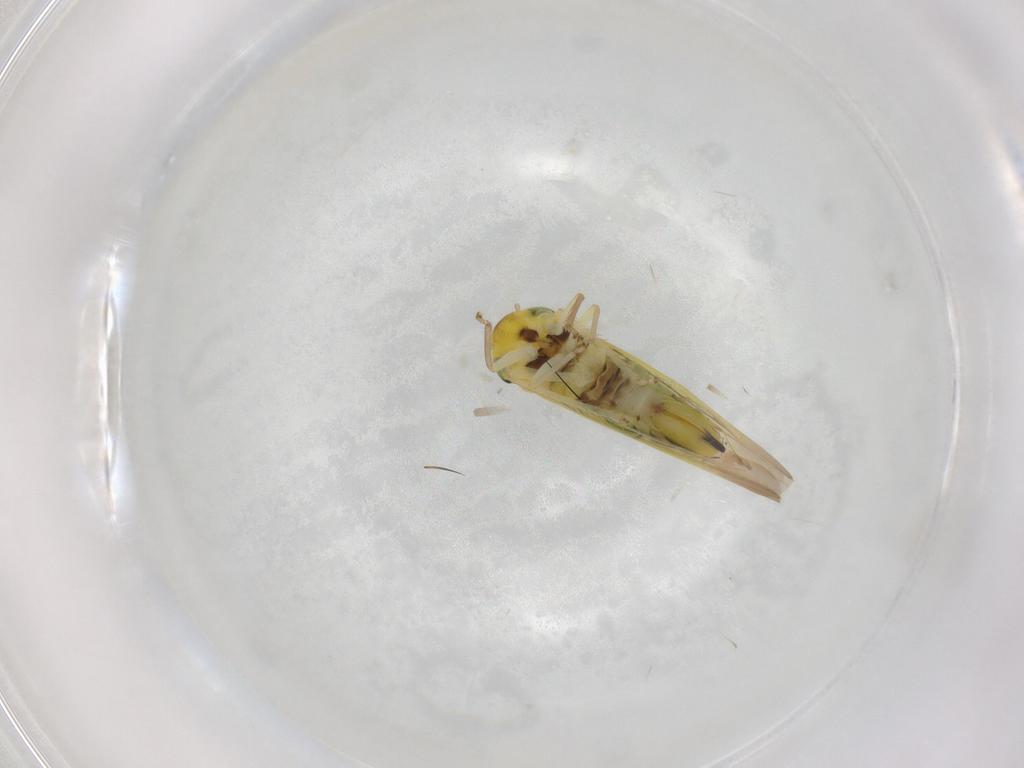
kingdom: Animalia
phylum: Arthropoda
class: Insecta
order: Hemiptera
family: Cicadellidae
